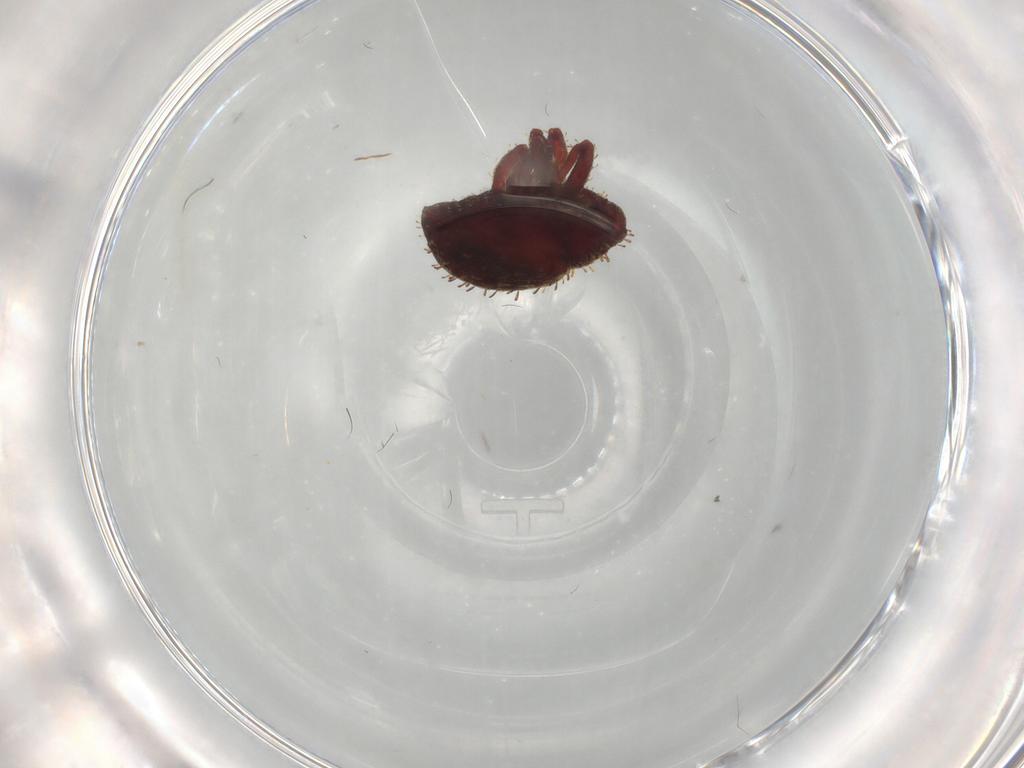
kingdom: Animalia
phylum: Arthropoda
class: Insecta
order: Coleoptera
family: Curculionidae
